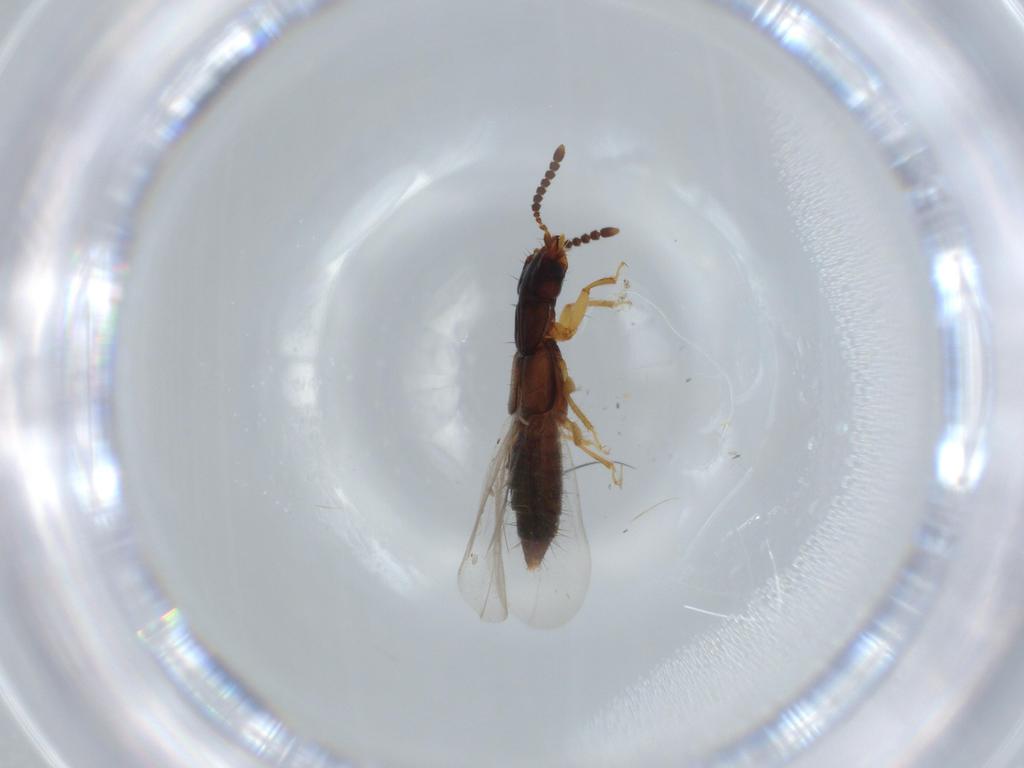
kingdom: Animalia
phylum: Arthropoda
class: Insecta
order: Coleoptera
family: Staphylinidae
